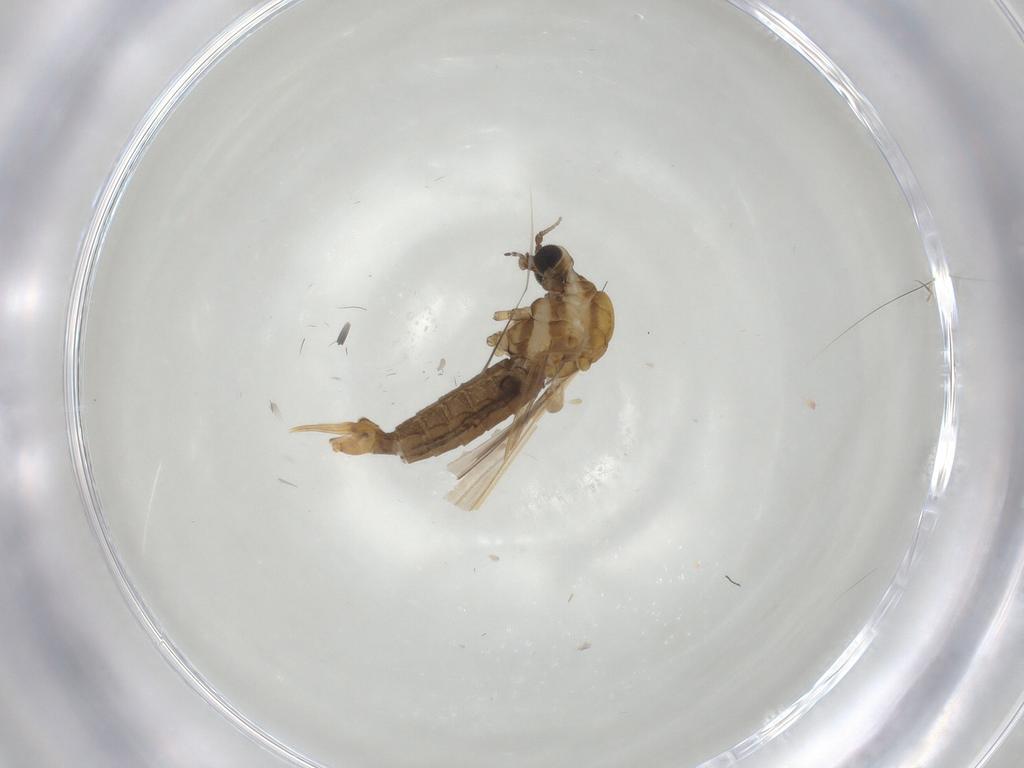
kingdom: Animalia
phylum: Arthropoda
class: Insecta
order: Diptera
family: Limoniidae
